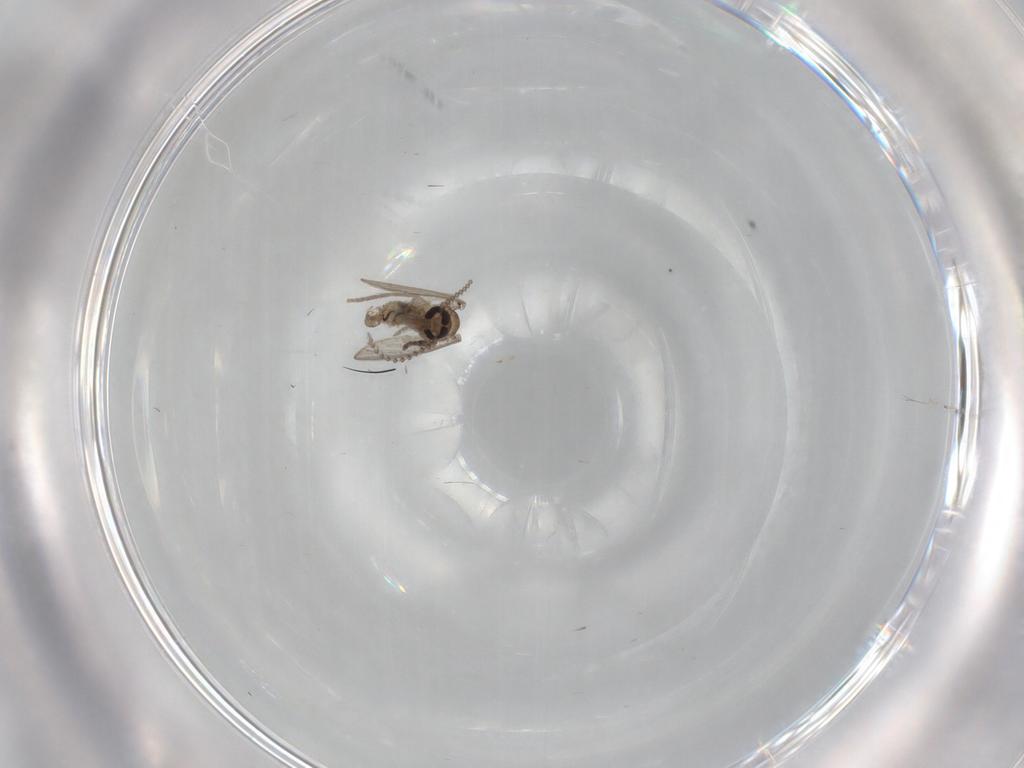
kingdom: Animalia
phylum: Arthropoda
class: Insecta
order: Diptera
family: Psychodidae
